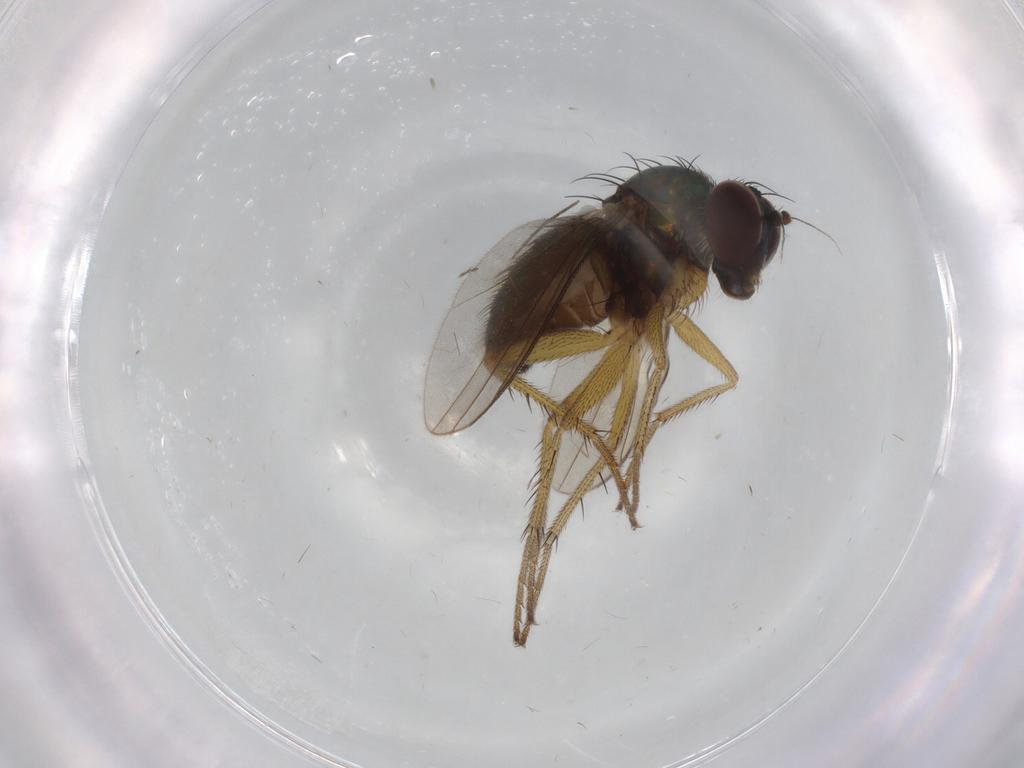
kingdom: Animalia
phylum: Arthropoda
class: Insecta
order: Diptera
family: Dolichopodidae
